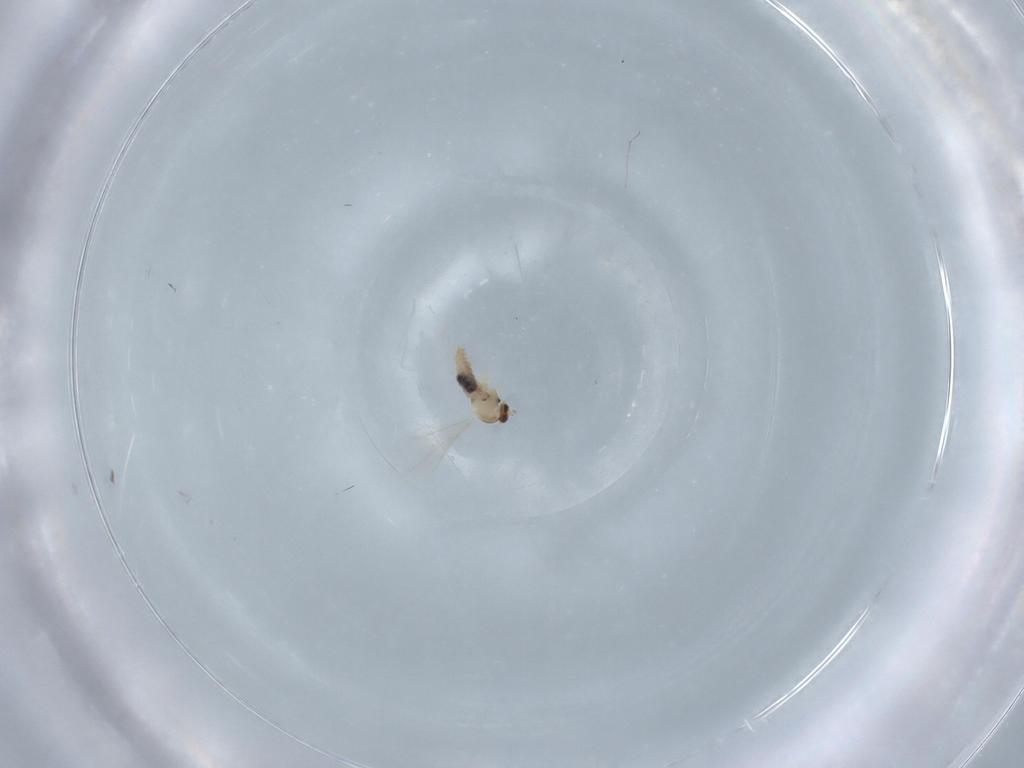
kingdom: Animalia
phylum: Arthropoda
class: Insecta
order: Diptera
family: Cecidomyiidae
